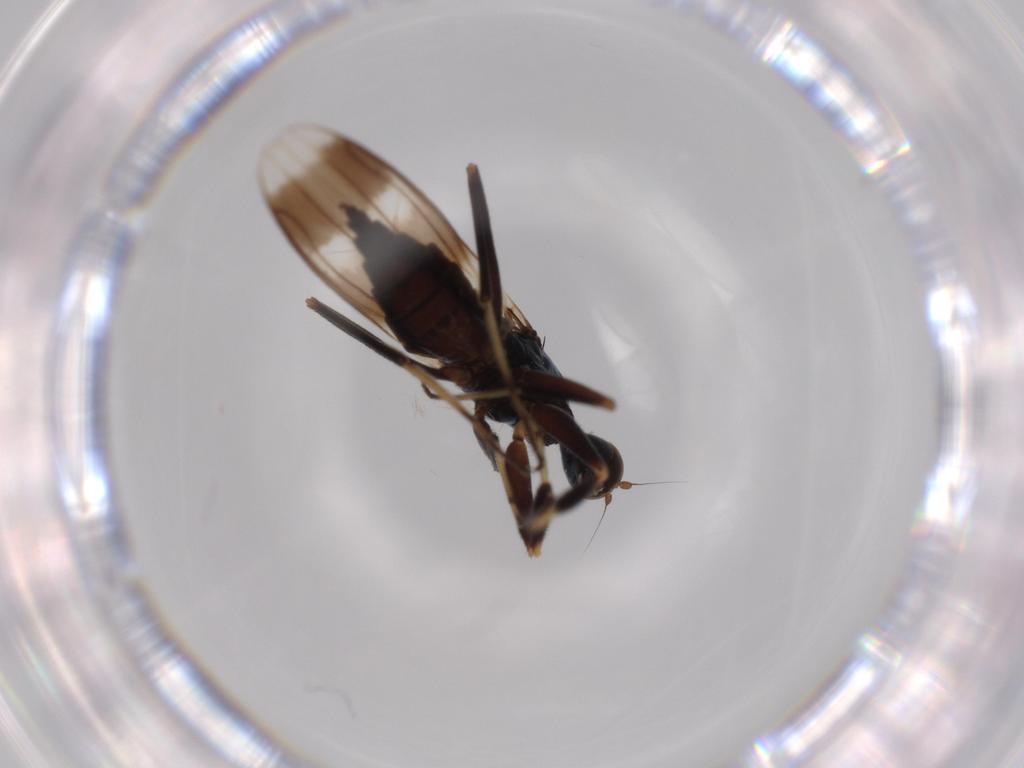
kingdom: Animalia
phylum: Arthropoda
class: Insecta
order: Diptera
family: Hybotidae
